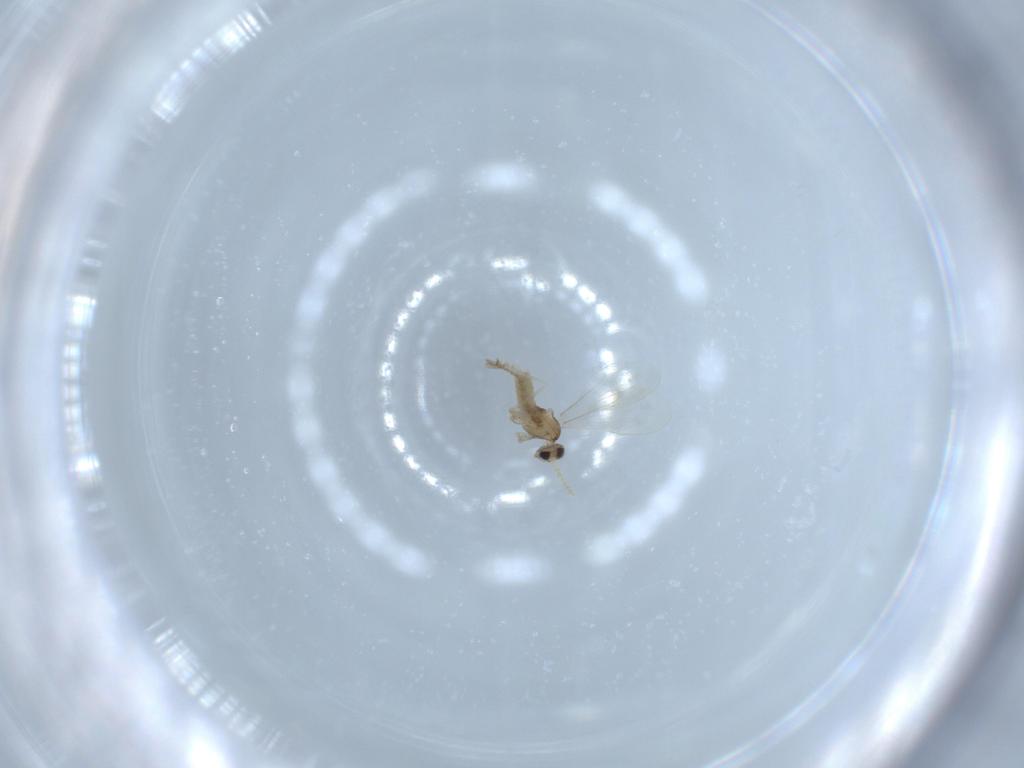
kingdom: Animalia
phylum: Arthropoda
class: Insecta
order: Diptera
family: Cecidomyiidae
